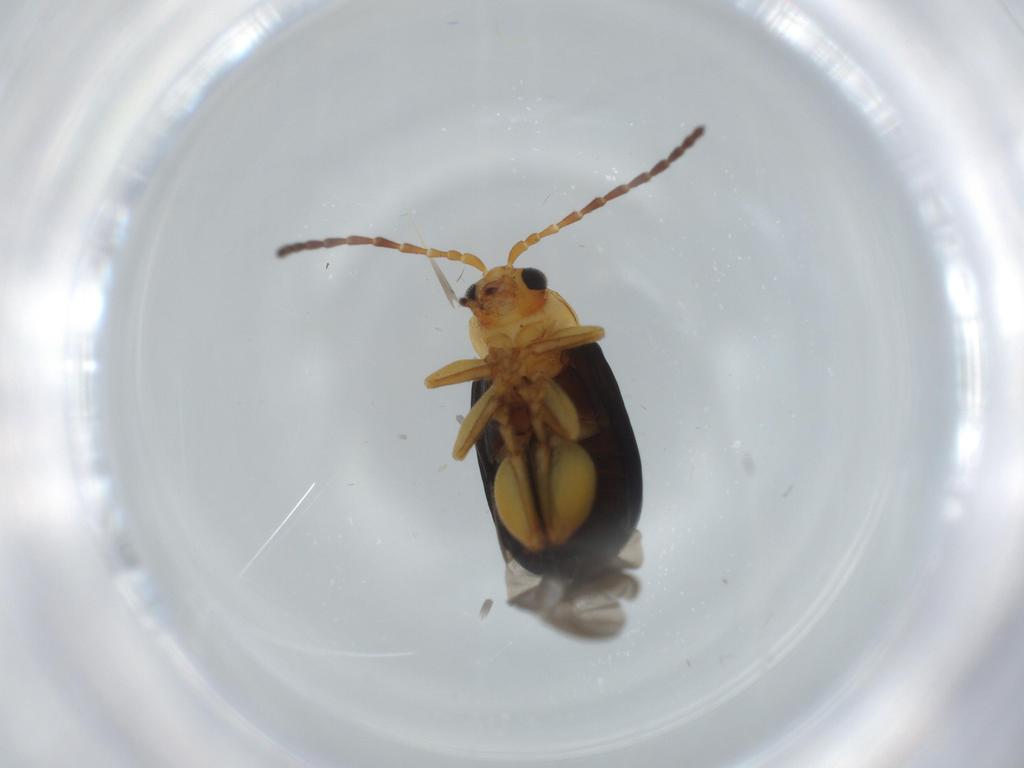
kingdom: Animalia
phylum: Arthropoda
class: Insecta
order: Coleoptera
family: Chrysomelidae
